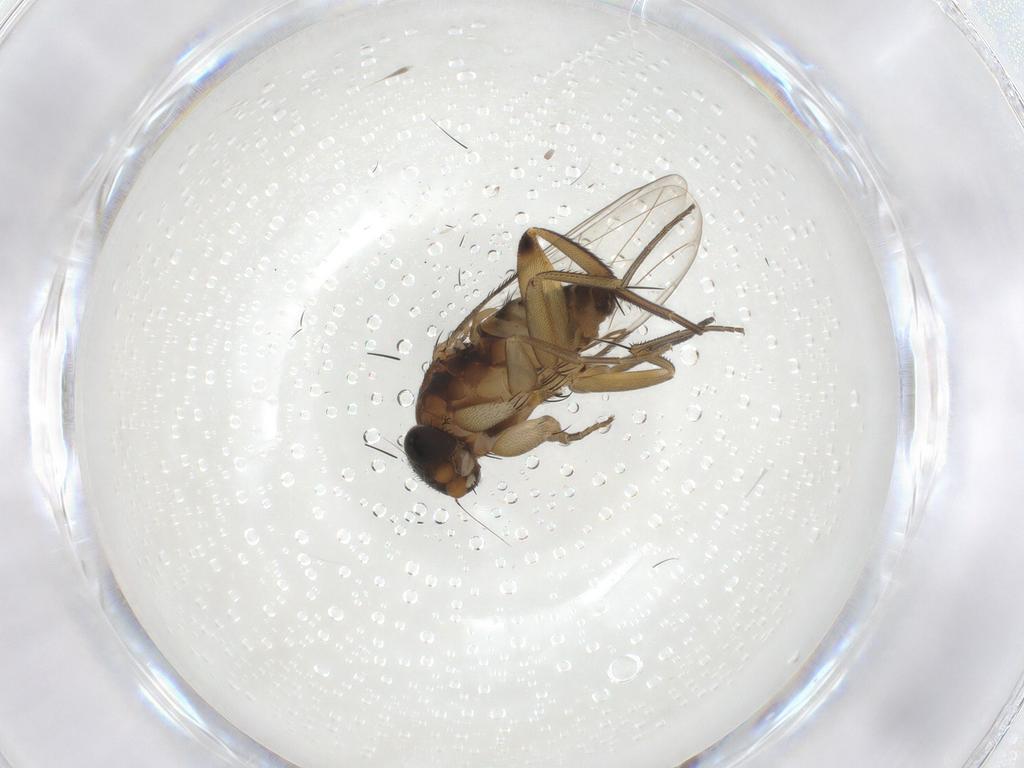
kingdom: Animalia
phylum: Arthropoda
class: Insecta
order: Diptera
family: Phoridae
